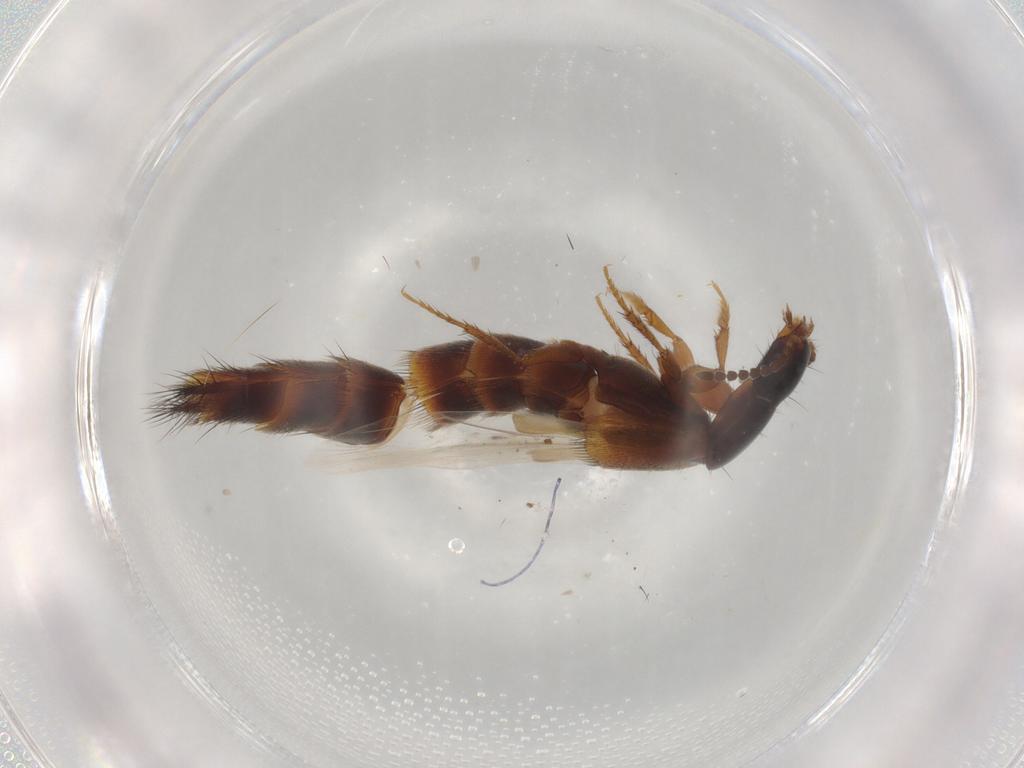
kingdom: Animalia
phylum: Arthropoda
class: Insecta
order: Coleoptera
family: Staphylinidae
